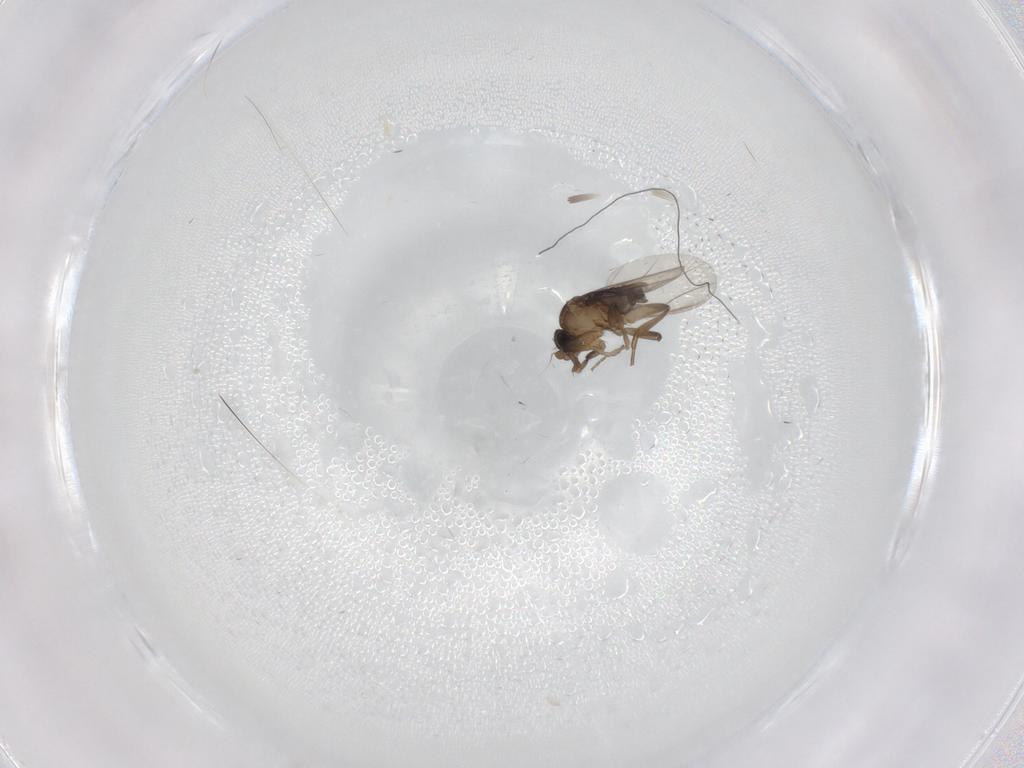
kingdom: Animalia
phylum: Arthropoda
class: Insecta
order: Diptera
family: Phoridae
